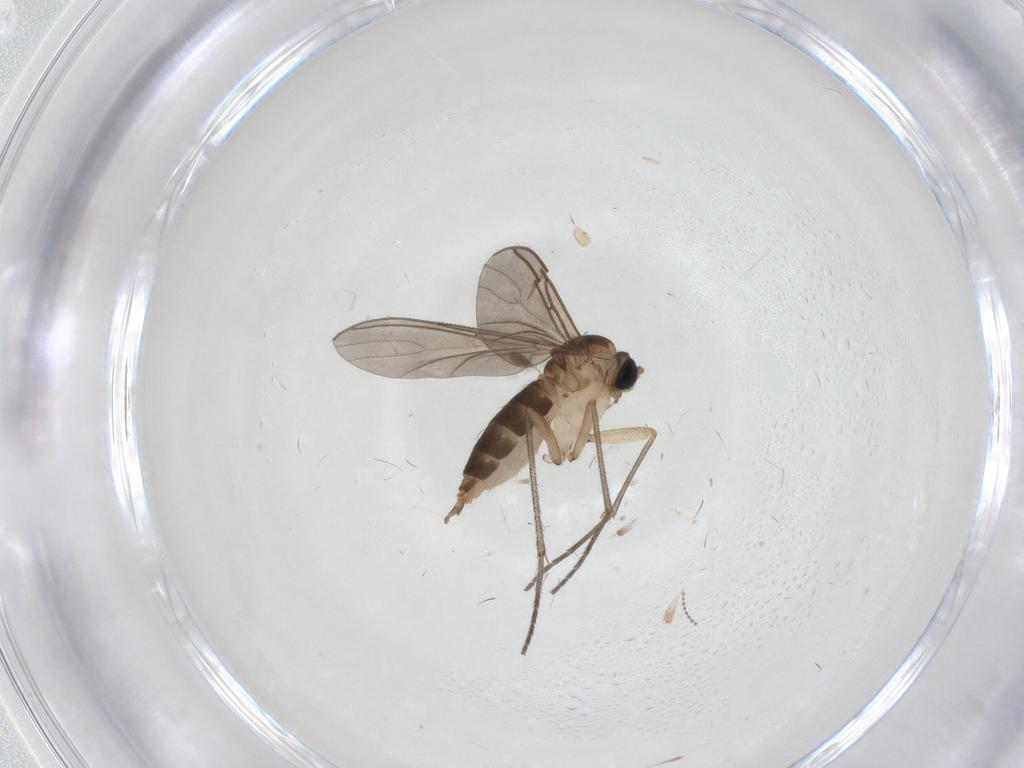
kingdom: Animalia
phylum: Arthropoda
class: Insecta
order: Diptera
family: Sciaridae
